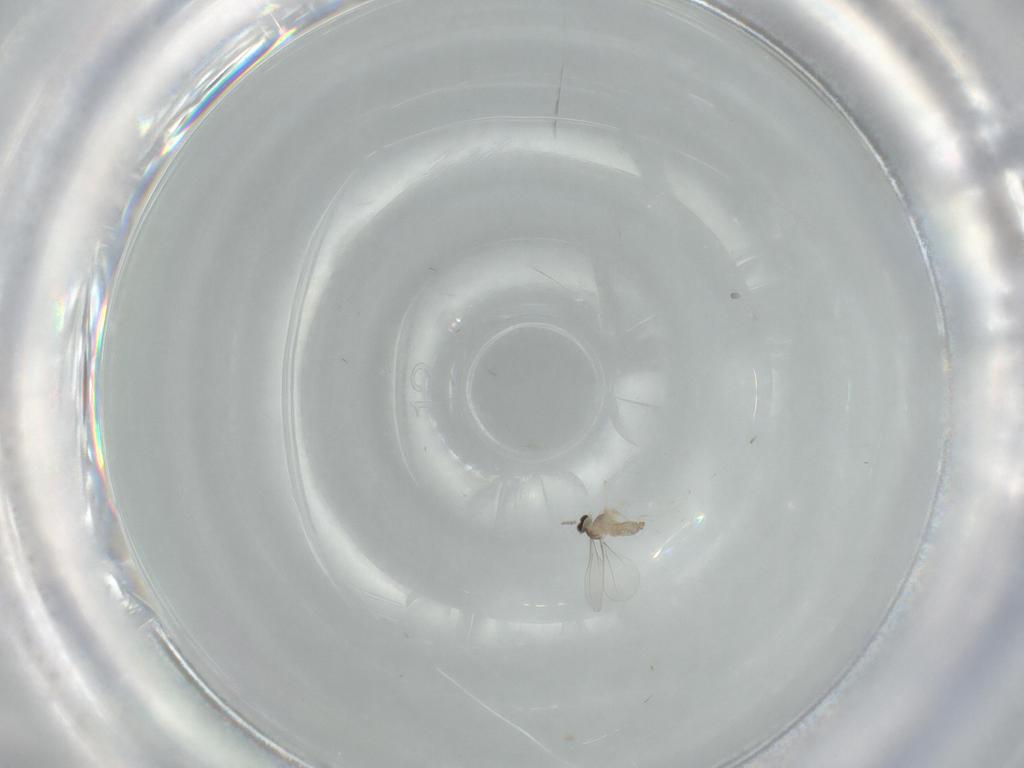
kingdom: Animalia
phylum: Arthropoda
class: Insecta
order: Diptera
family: Cecidomyiidae
